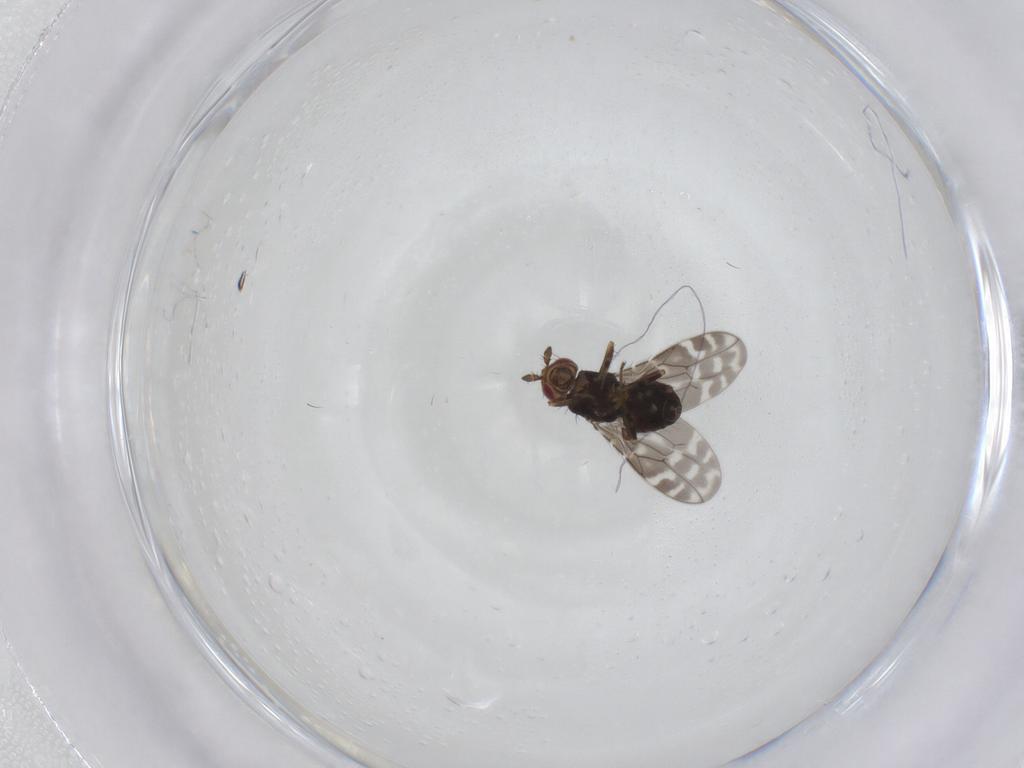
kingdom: Animalia
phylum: Arthropoda
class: Insecta
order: Diptera
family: Sphaeroceridae
